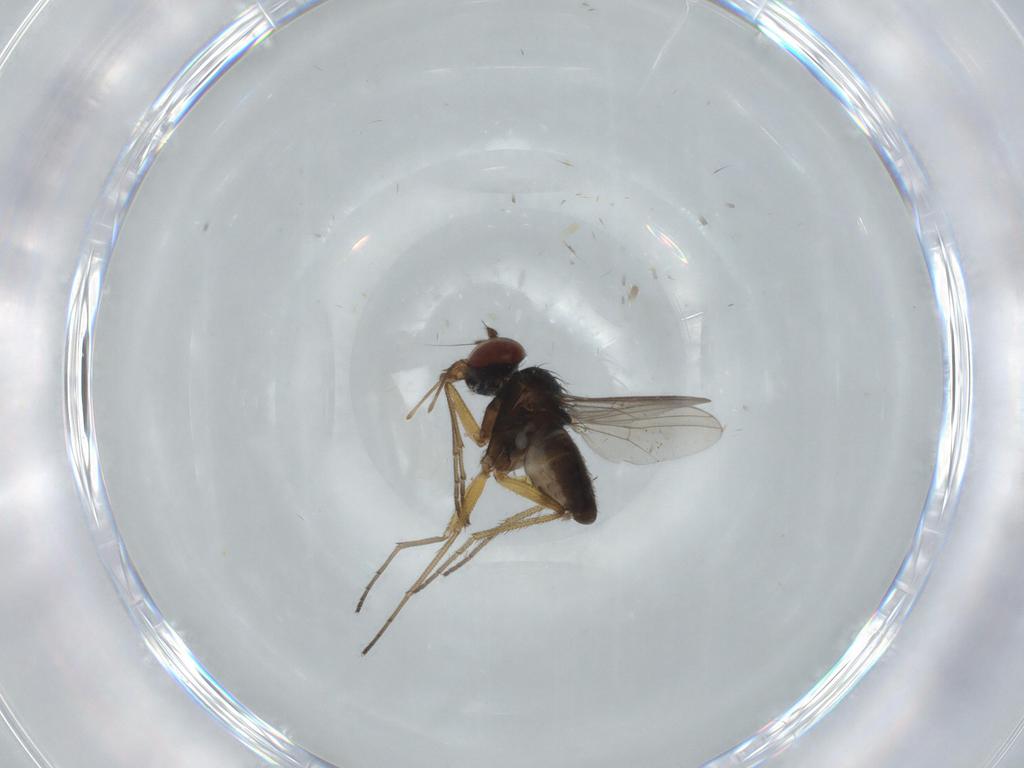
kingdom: Animalia
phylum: Arthropoda
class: Insecta
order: Diptera
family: Dolichopodidae
